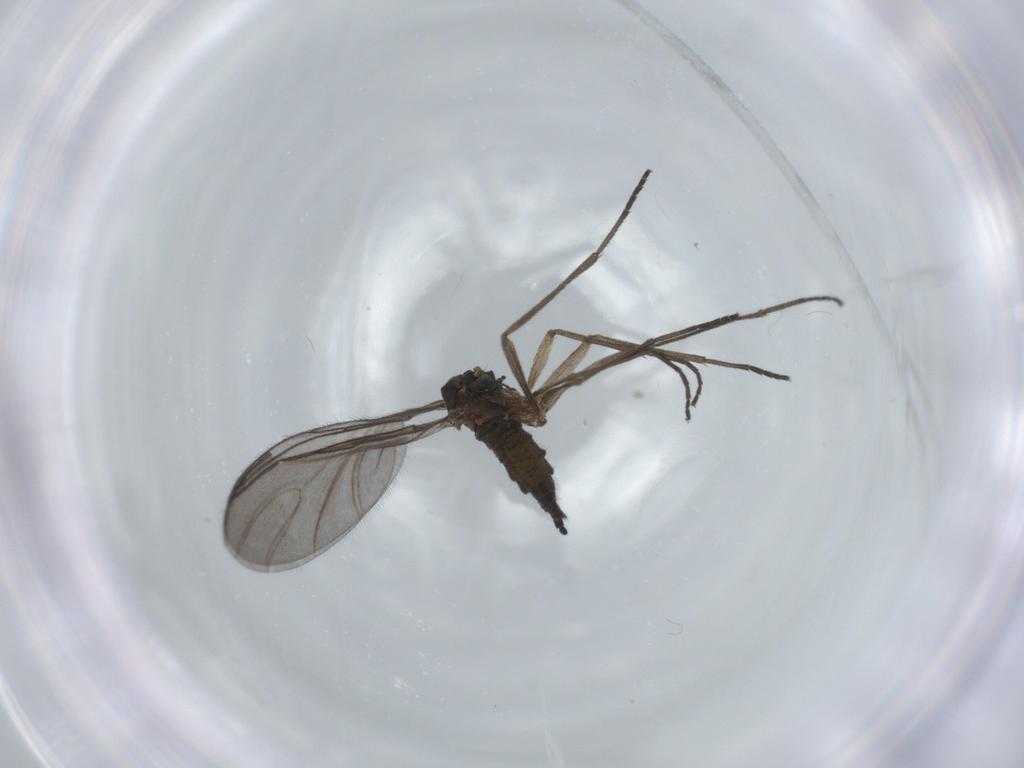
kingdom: Animalia
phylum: Arthropoda
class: Insecta
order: Diptera
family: Sciaridae
